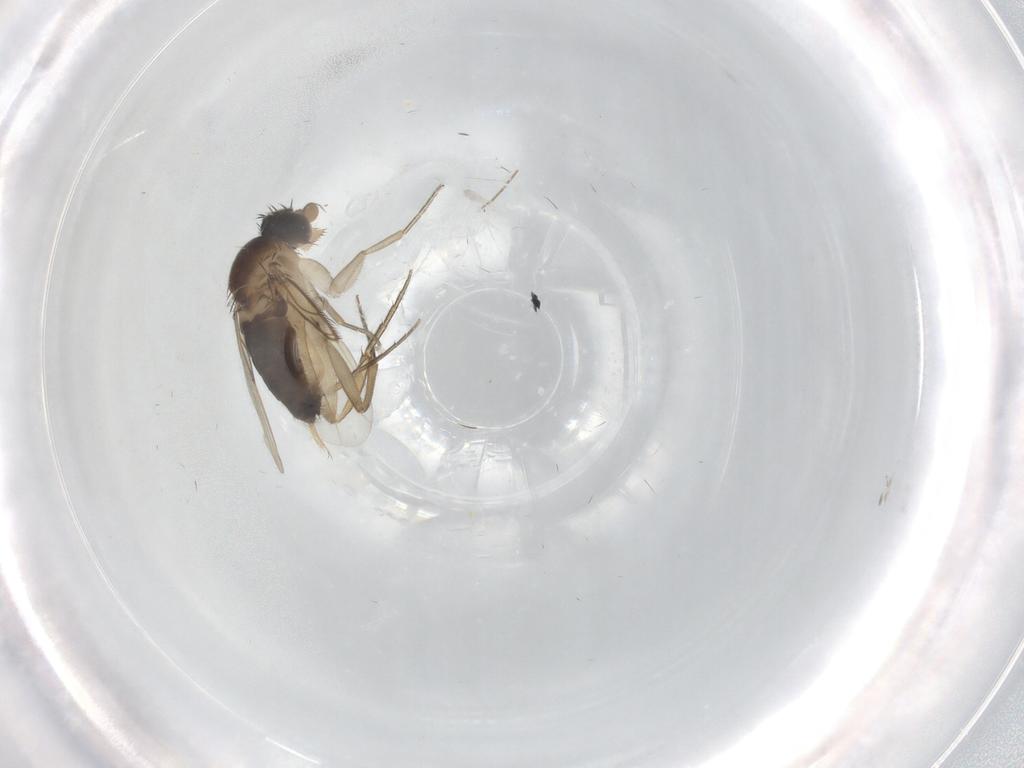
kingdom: Animalia
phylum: Arthropoda
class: Insecta
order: Diptera
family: Phoridae
